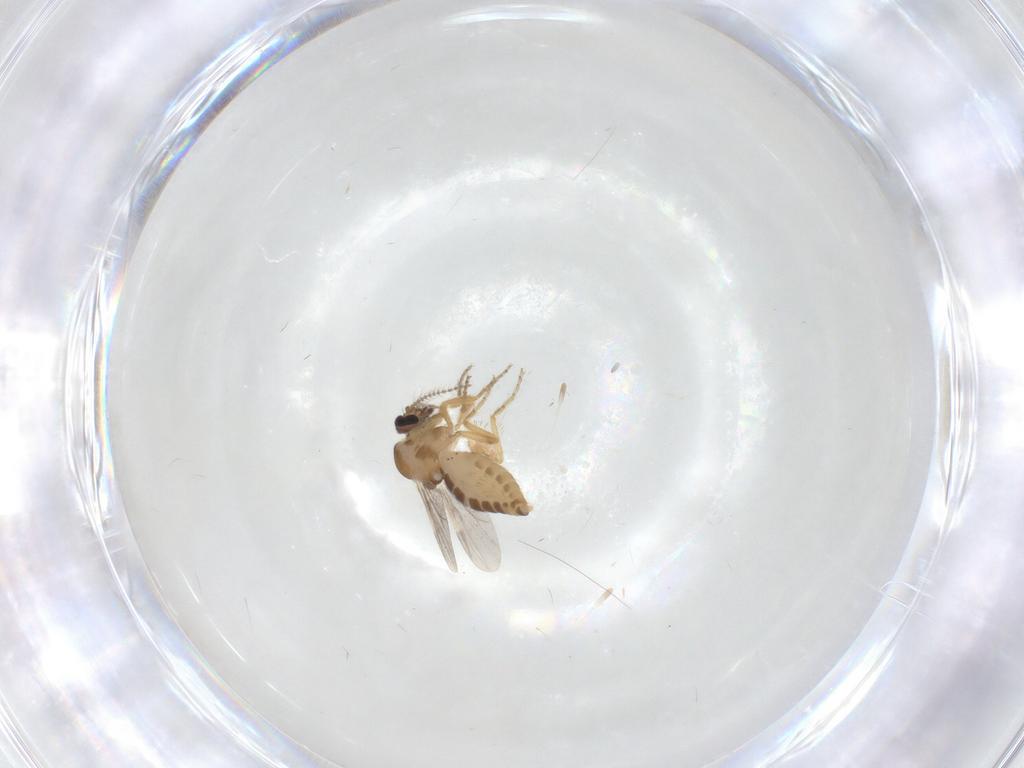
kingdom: Animalia
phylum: Arthropoda
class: Insecta
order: Diptera
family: Ceratopogonidae
